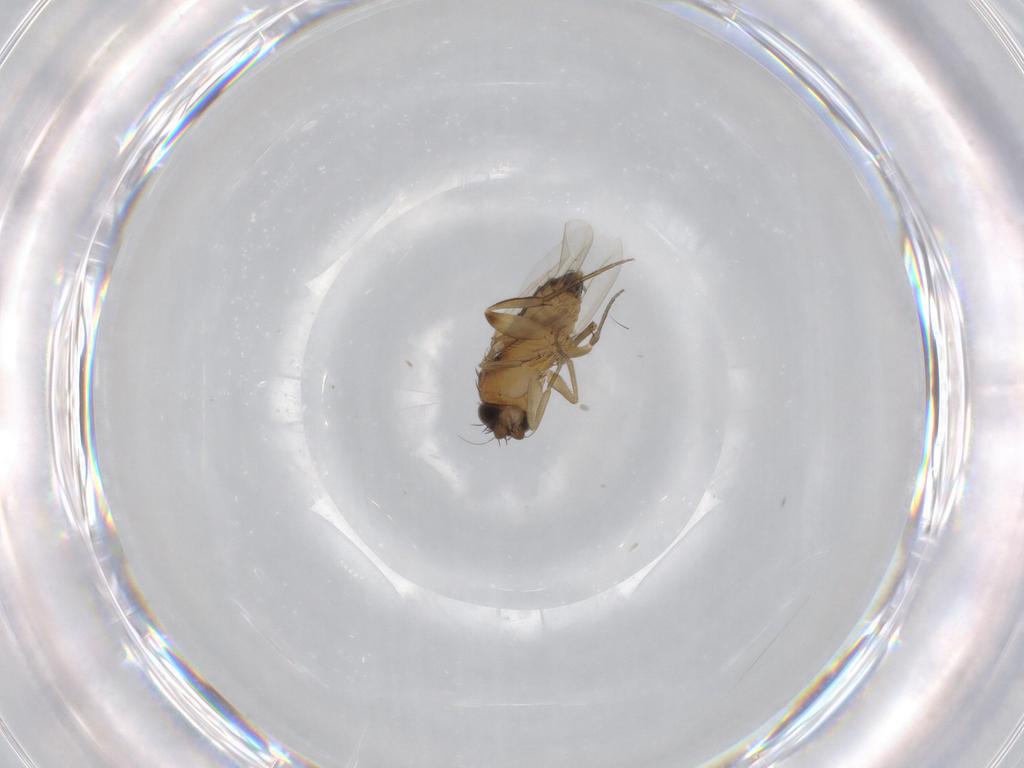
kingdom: Animalia
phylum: Arthropoda
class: Insecta
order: Diptera
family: Phoridae
